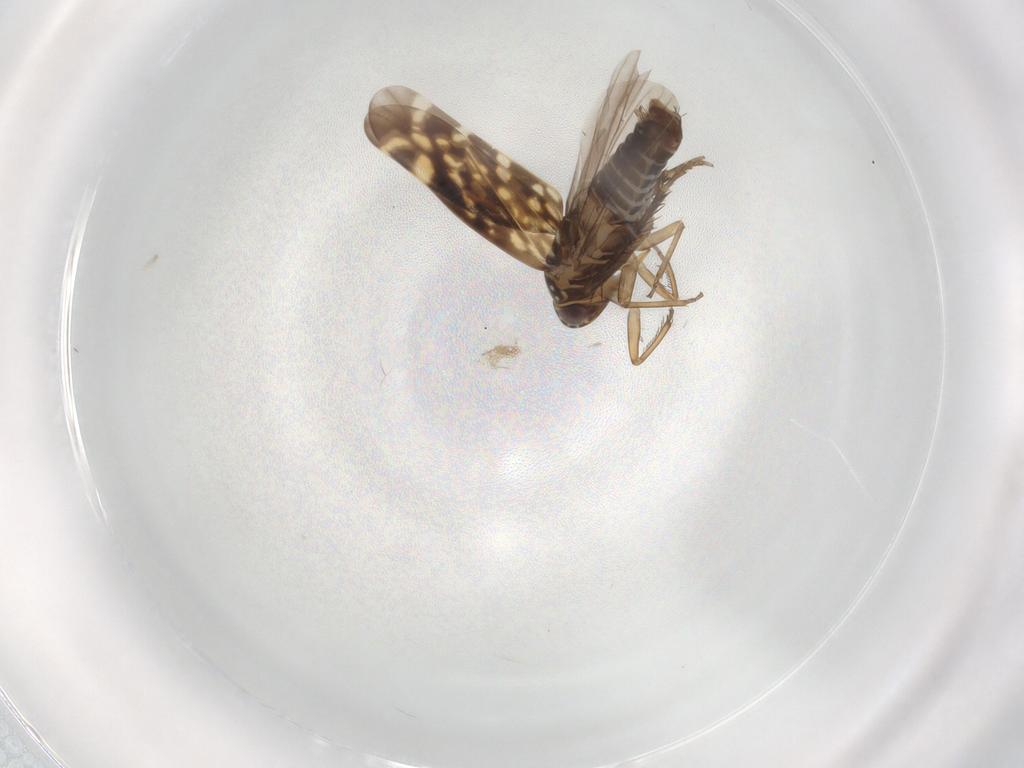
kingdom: Animalia
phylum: Arthropoda
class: Insecta
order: Hemiptera
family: Cicadellidae
